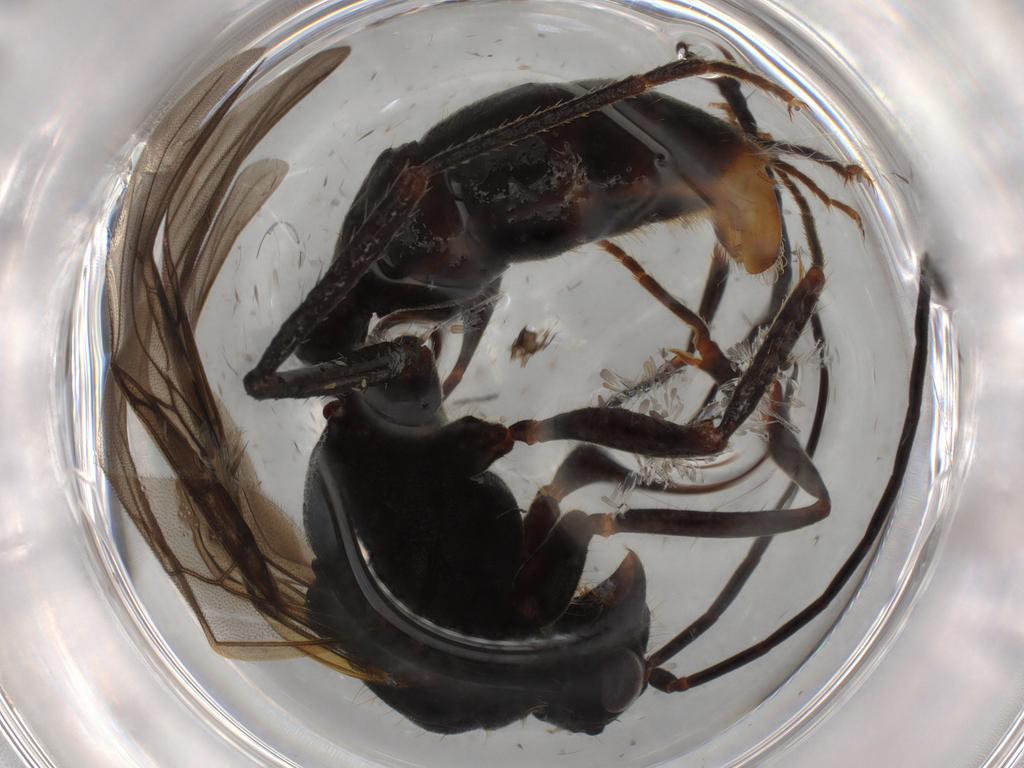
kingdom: Animalia
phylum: Arthropoda
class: Insecta
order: Hymenoptera
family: Formicidae
